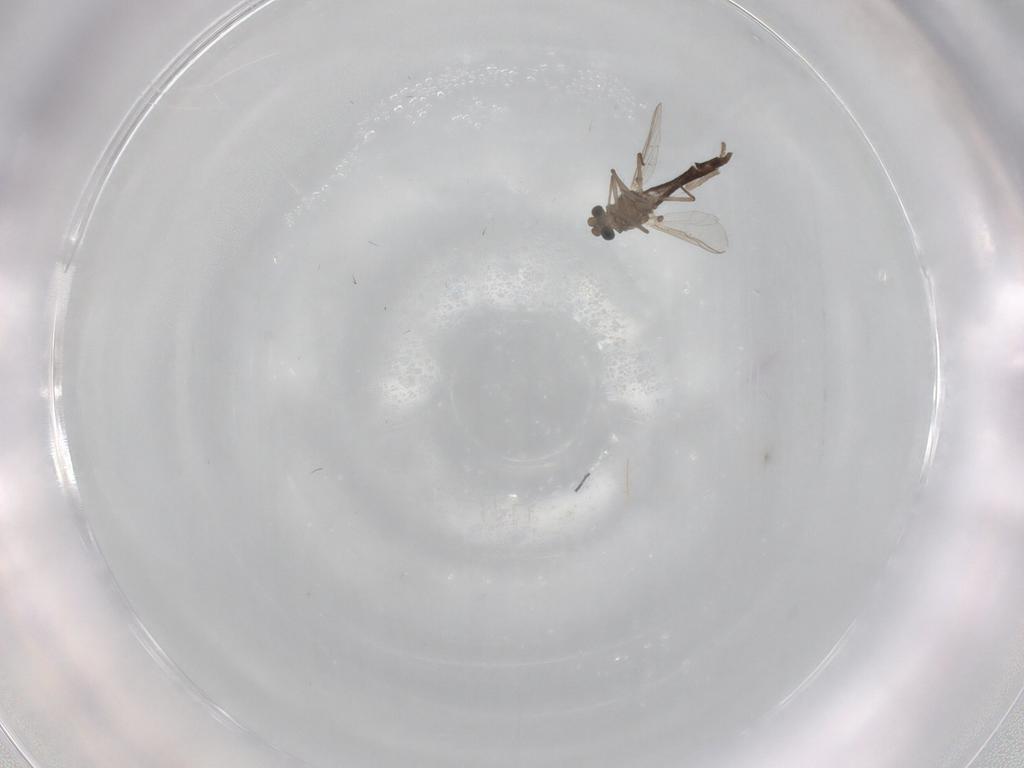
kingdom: Animalia
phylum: Arthropoda
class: Insecta
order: Diptera
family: Chironomidae
